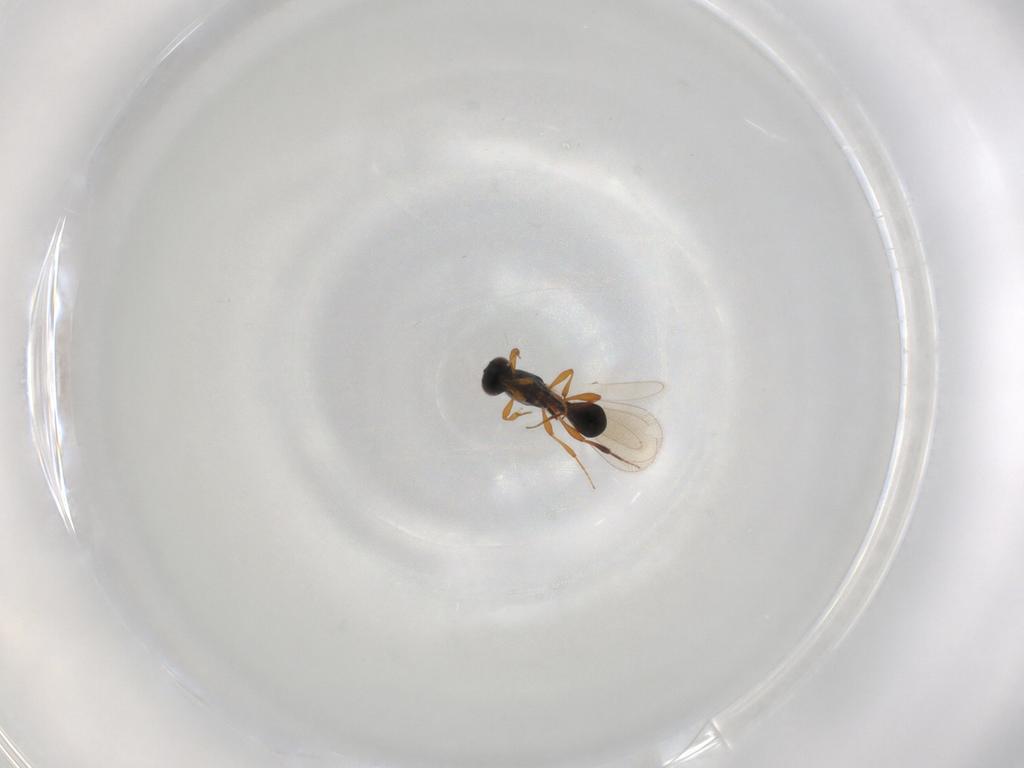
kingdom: Animalia
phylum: Arthropoda
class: Insecta
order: Hymenoptera
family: Platygastridae
